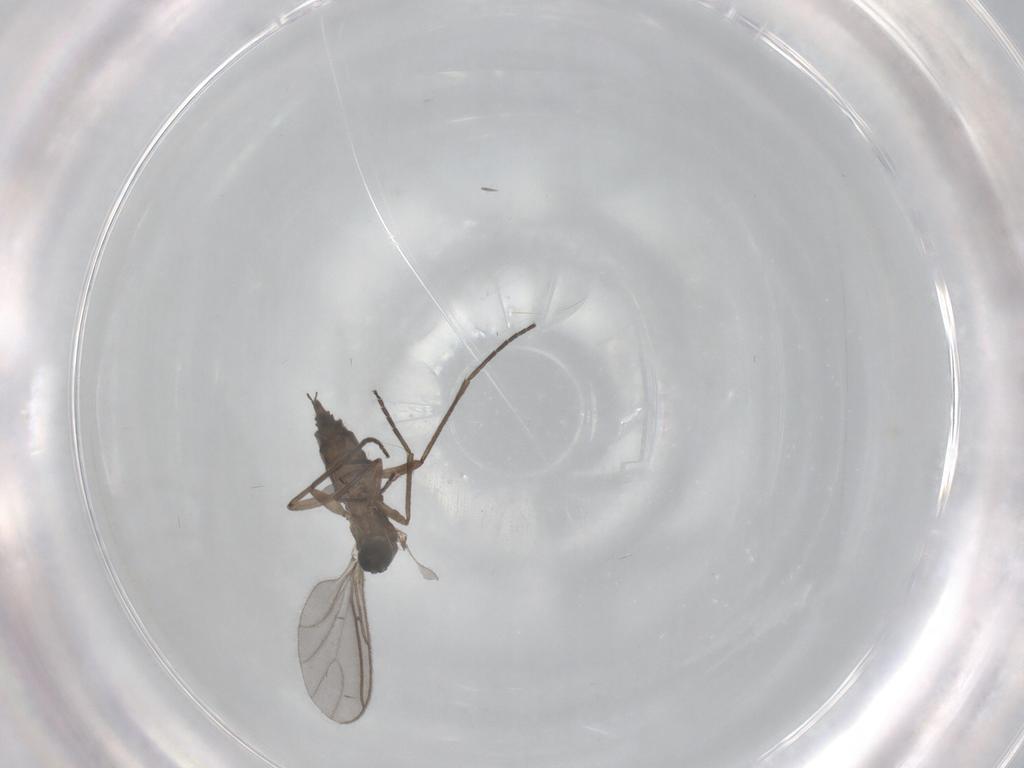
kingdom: Animalia
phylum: Arthropoda
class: Insecta
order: Diptera
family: Sciaridae
